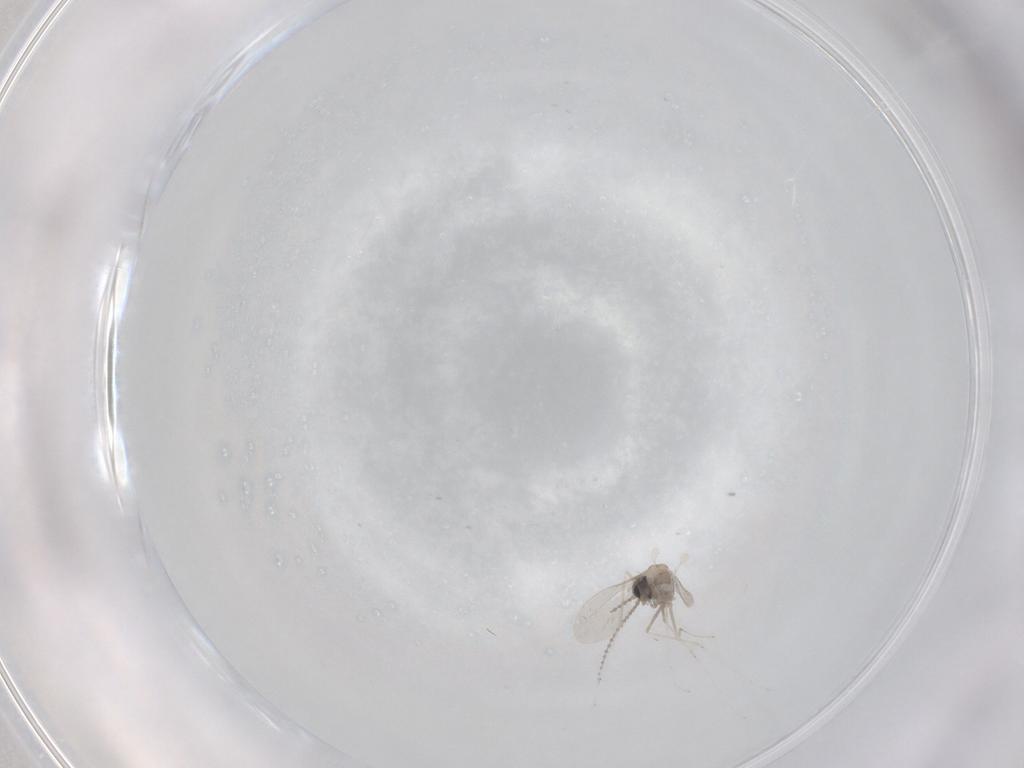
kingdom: Animalia
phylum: Arthropoda
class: Insecta
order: Diptera
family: Cecidomyiidae
